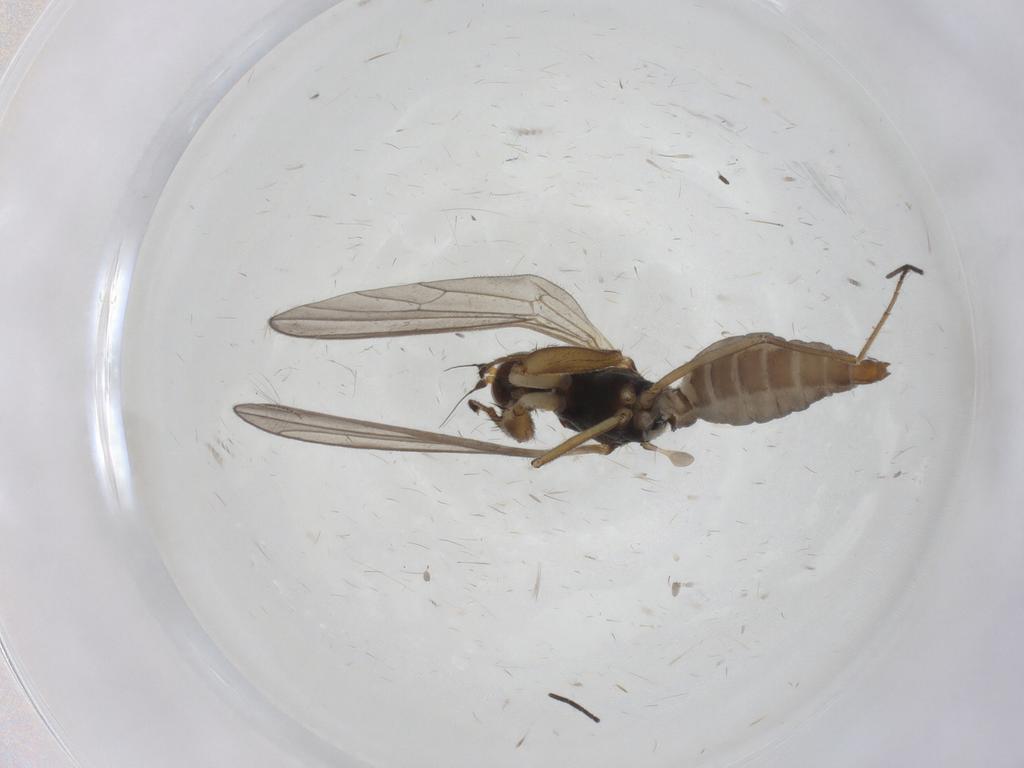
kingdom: Animalia
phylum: Arthropoda
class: Insecta
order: Diptera
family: Empididae
